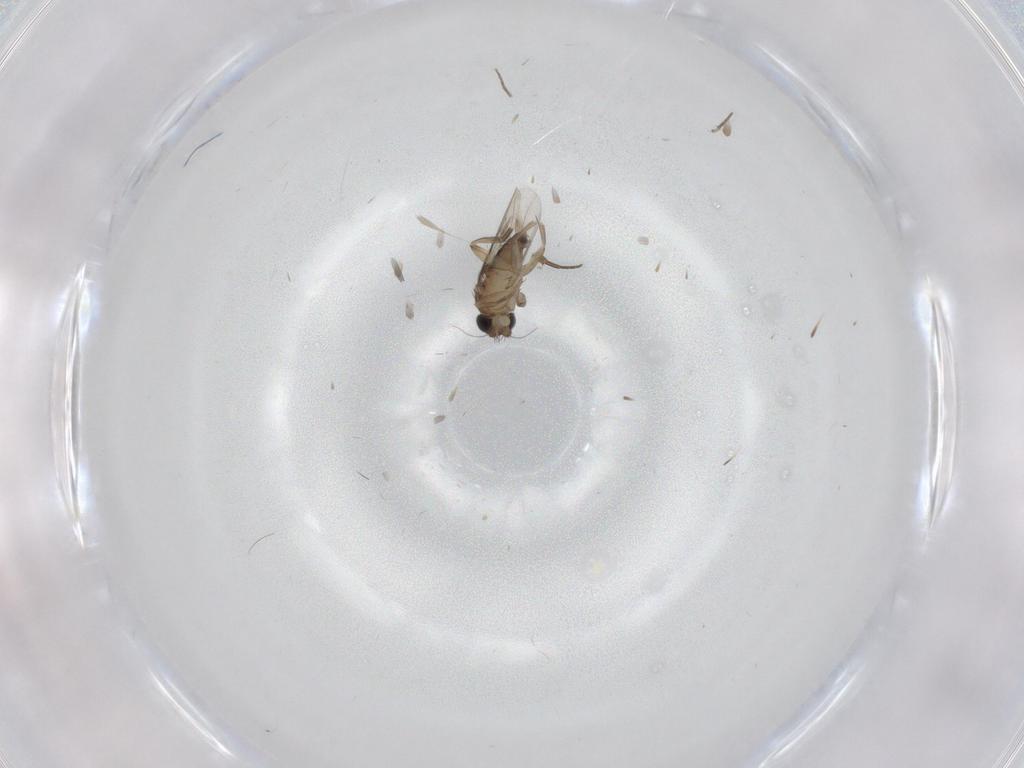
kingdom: Animalia
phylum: Arthropoda
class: Insecta
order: Diptera
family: Phoridae
